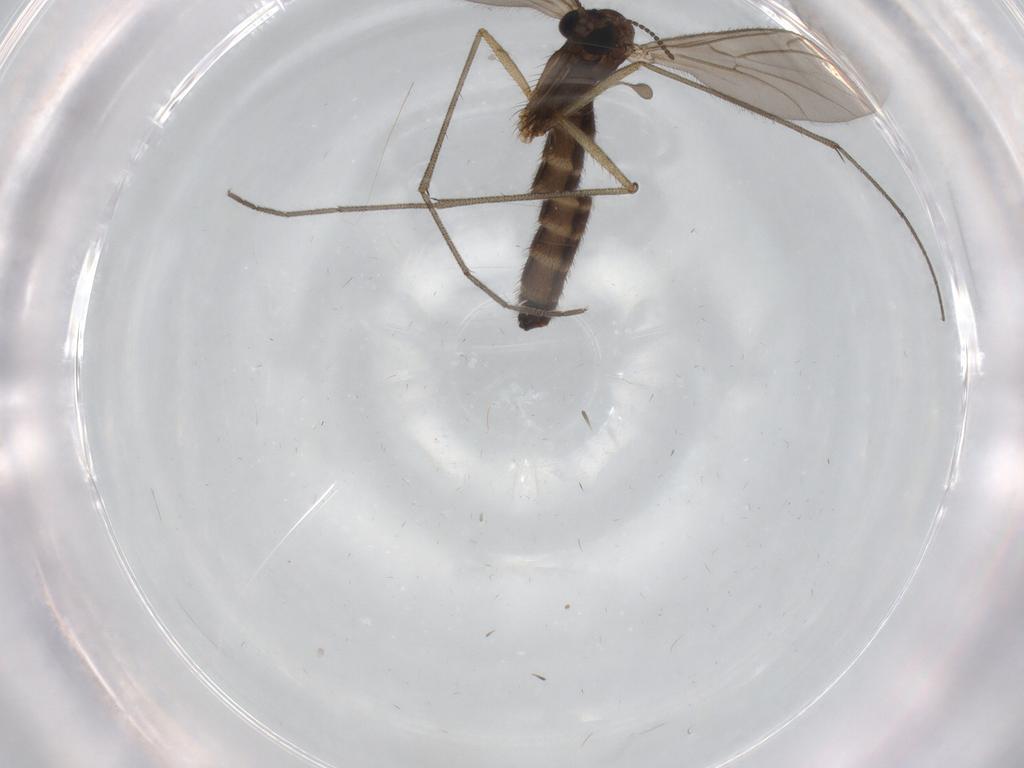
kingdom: Animalia
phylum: Arthropoda
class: Insecta
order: Diptera
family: Ditomyiidae
